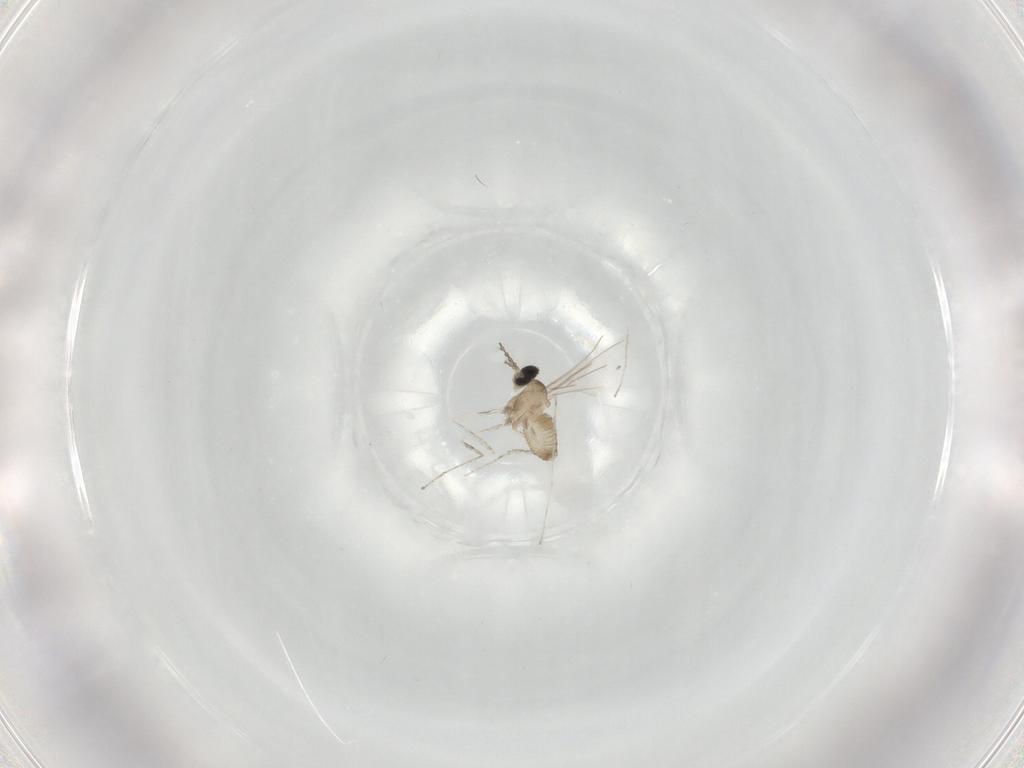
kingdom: Animalia
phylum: Arthropoda
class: Insecta
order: Diptera
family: Cecidomyiidae
